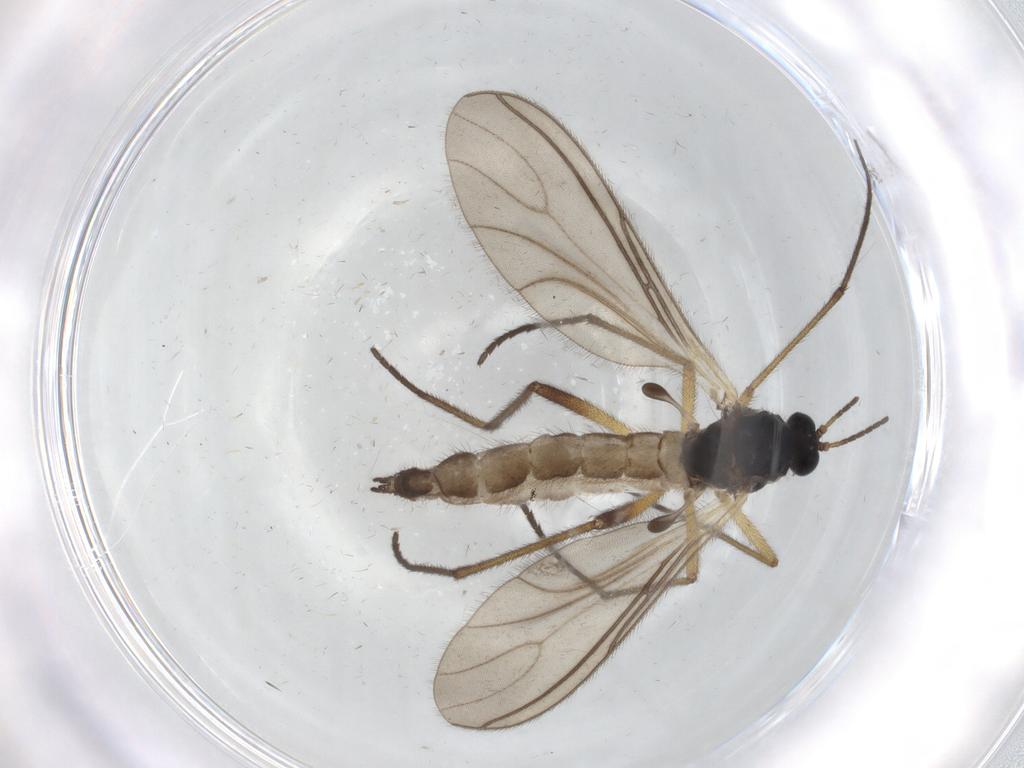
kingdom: Animalia
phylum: Arthropoda
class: Insecta
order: Diptera
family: Sciaridae
